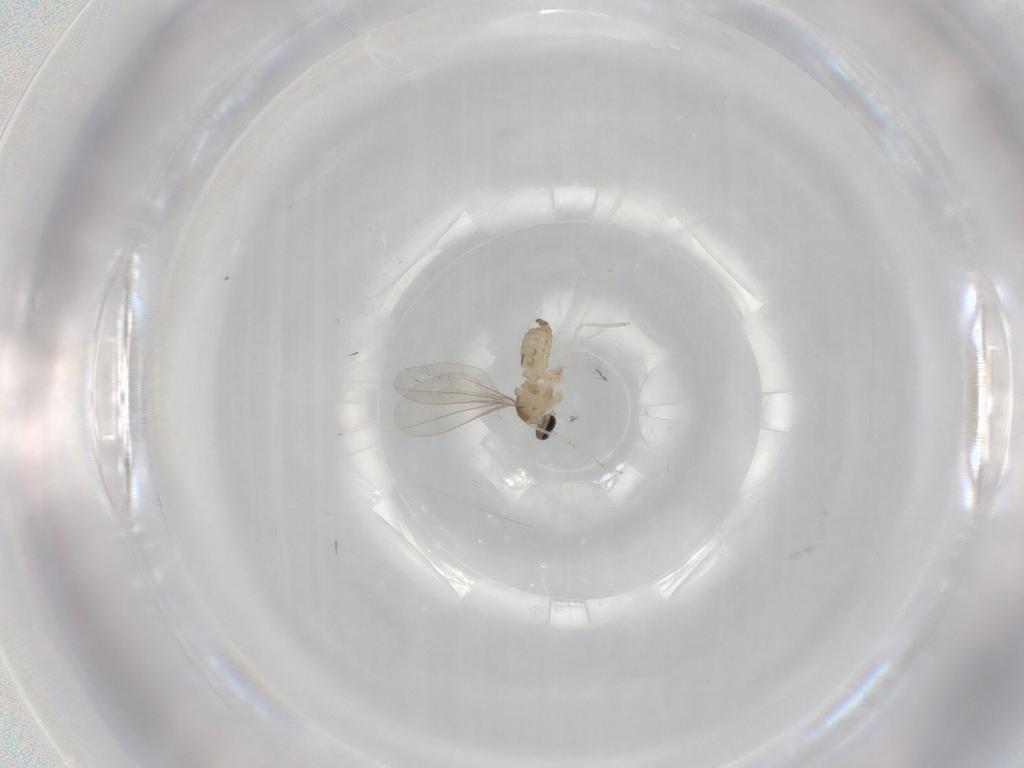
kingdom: Animalia
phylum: Arthropoda
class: Insecta
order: Diptera
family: Cecidomyiidae
